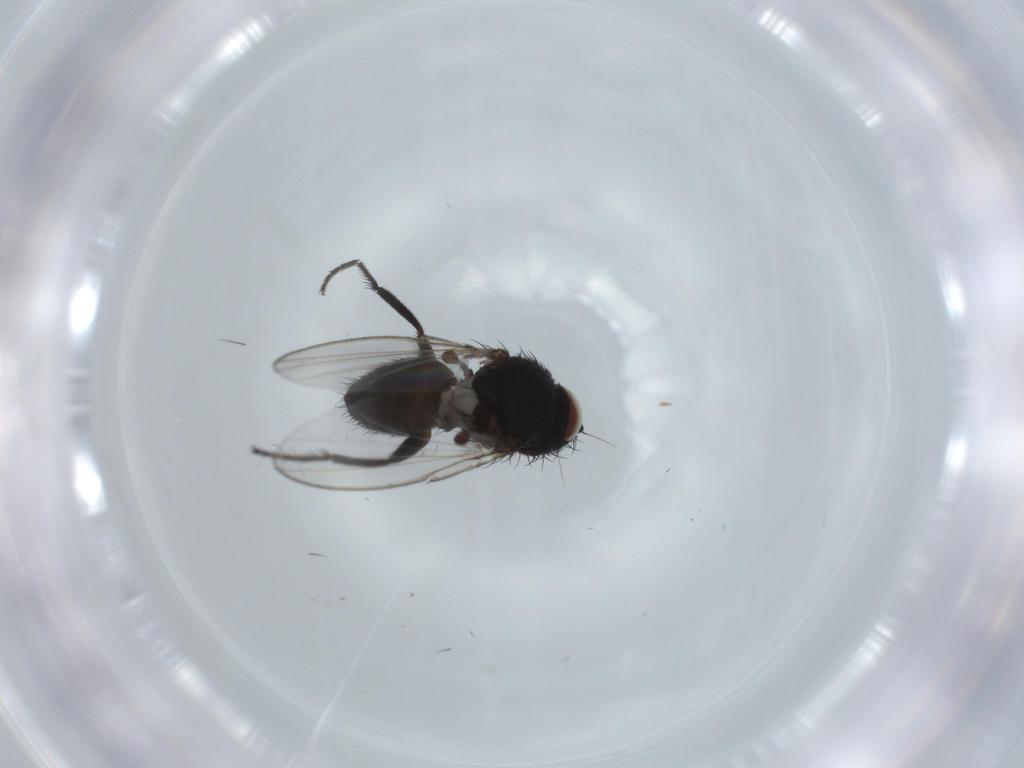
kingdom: Animalia
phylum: Arthropoda
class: Insecta
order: Diptera
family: Milichiidae
